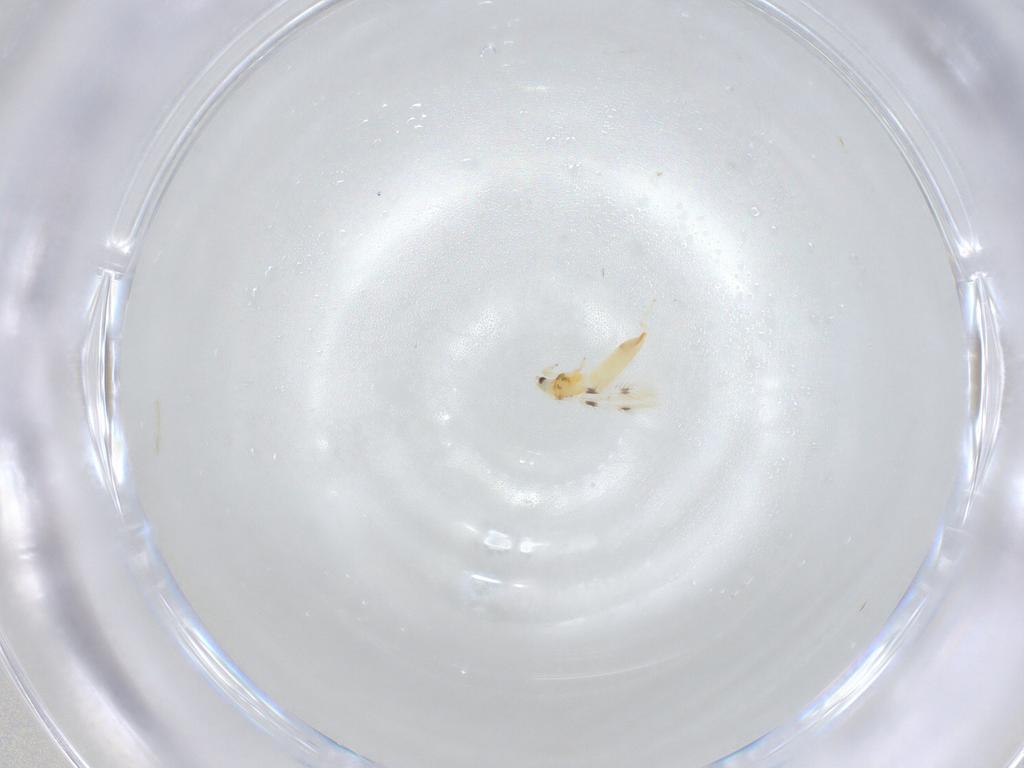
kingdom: Animalia
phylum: Arthropoda
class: Insecta
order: Thysanoptera
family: Thripidae
